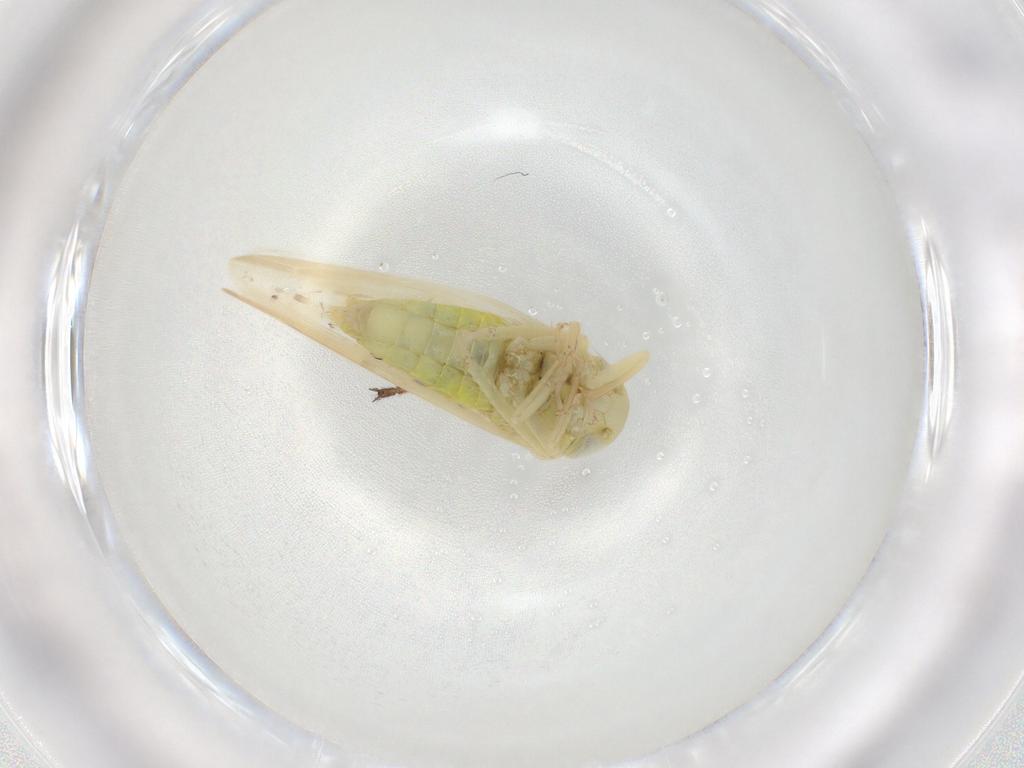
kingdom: Animalia
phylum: Arthropoda
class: Insecta
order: Hemiptera
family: Cicadellidae
